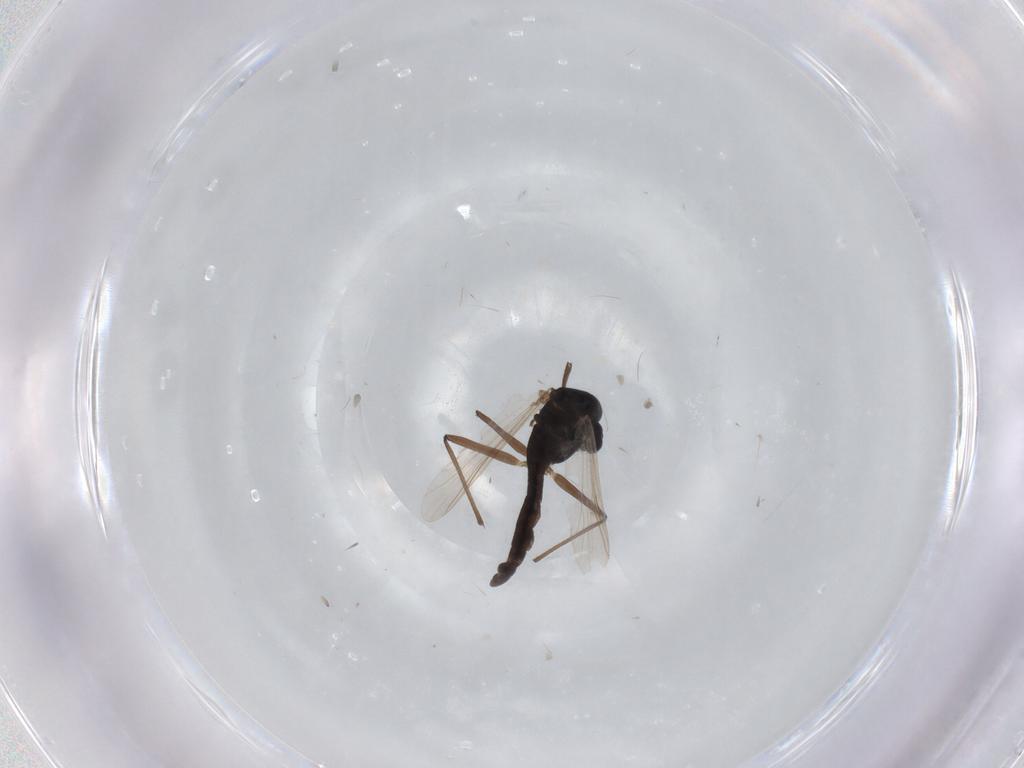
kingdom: Animalia
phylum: Arthropoda
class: Insecta
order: Diptera
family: Chironomidae
